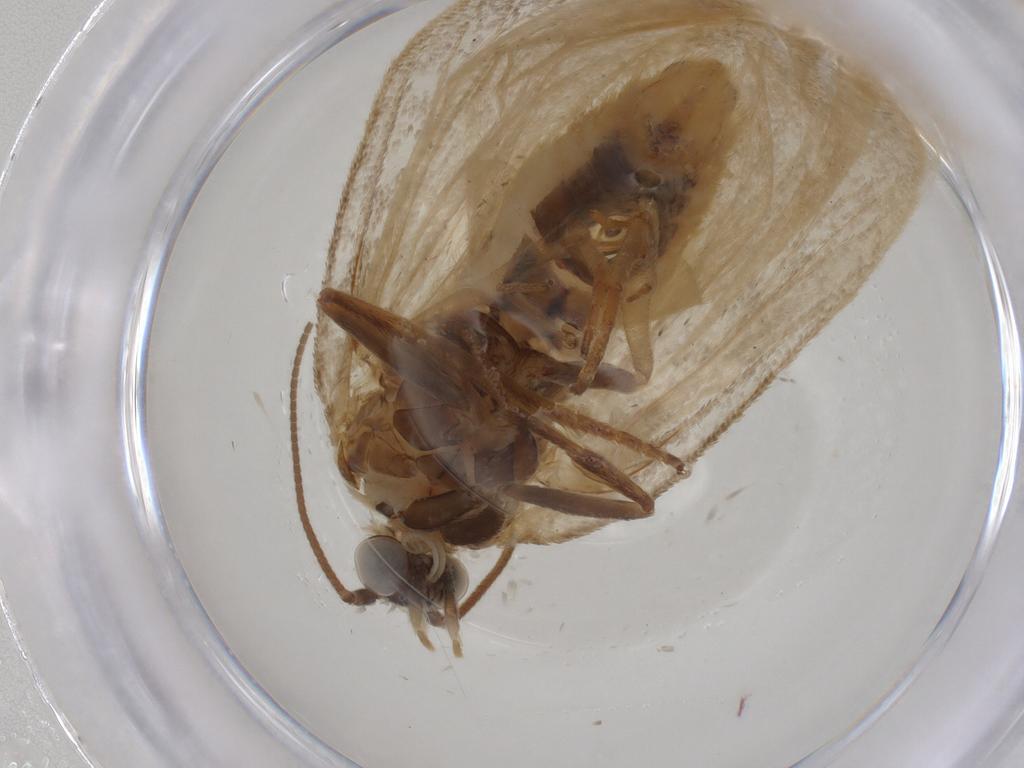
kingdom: Animalia
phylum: Arthropoda
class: Insecta
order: Lepidoptera
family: Tortricidae
